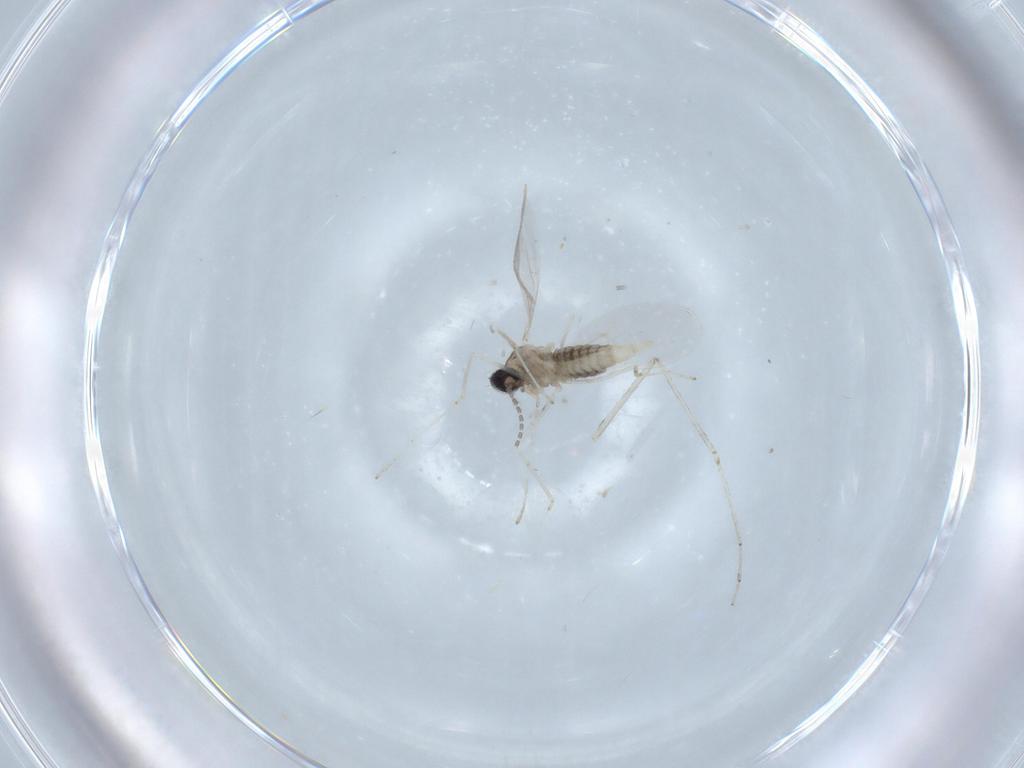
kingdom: Animalia
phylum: Arthropoda
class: Insecta
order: Diptera
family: Cecidomyiidae
